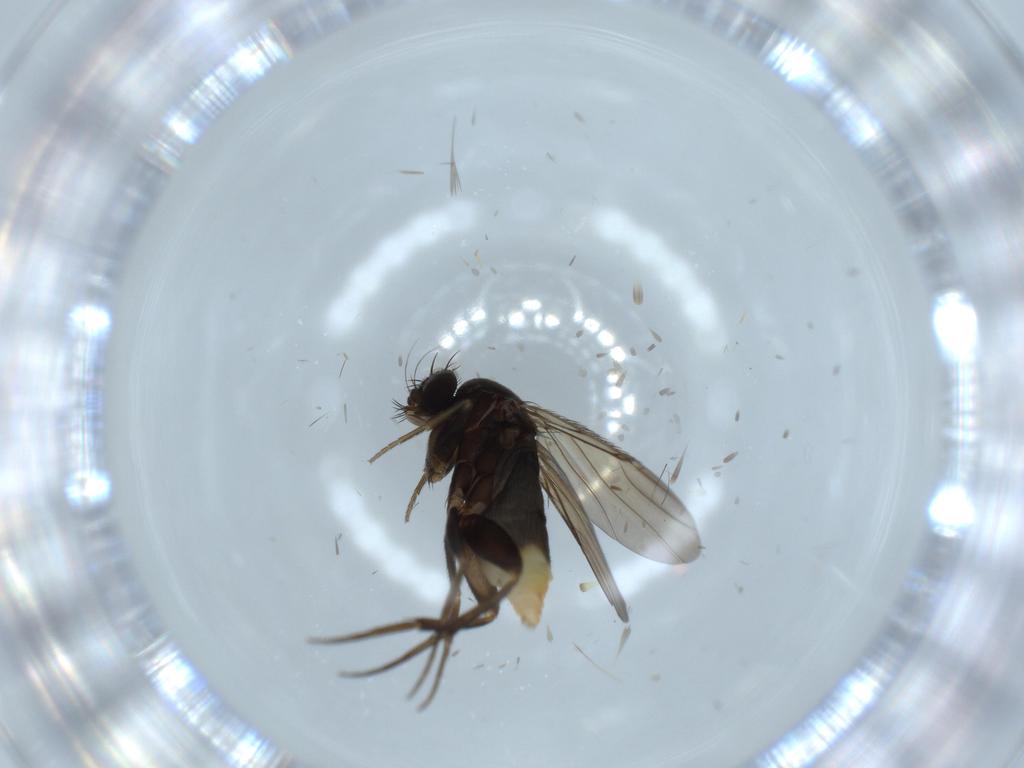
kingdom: Animalia
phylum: Arthropoda
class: Insecta
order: Diptera
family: Phoridae
